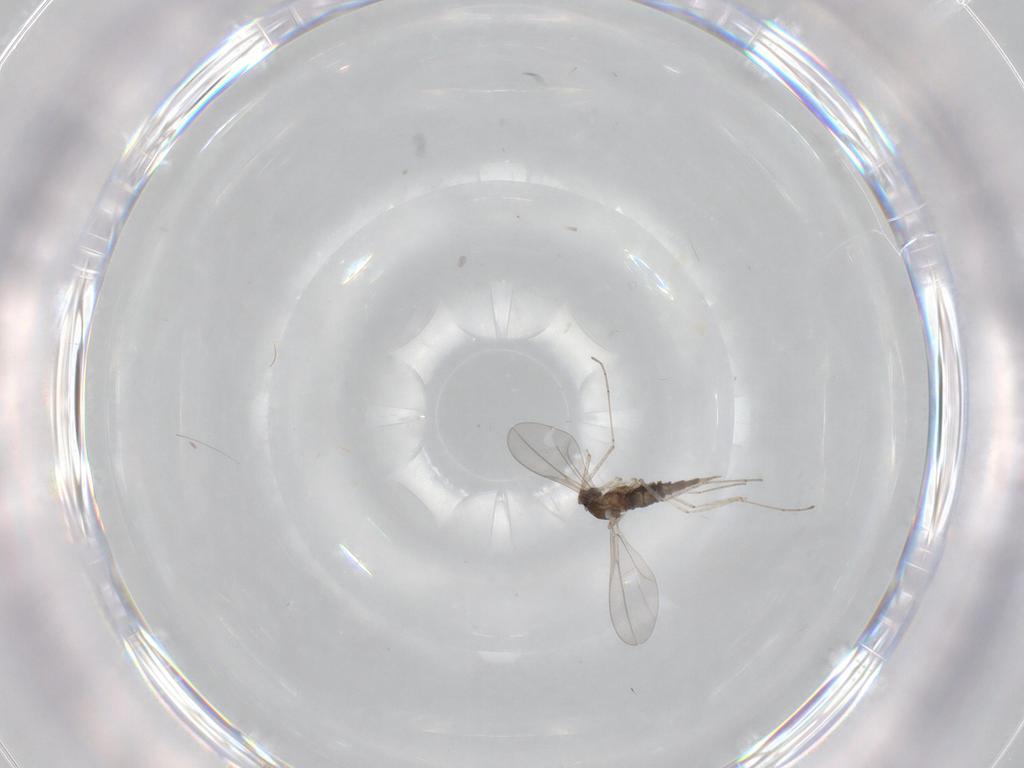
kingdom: Animalia
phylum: Arthropoda
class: Insecta
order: Diptera
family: Cecidomyiidae
